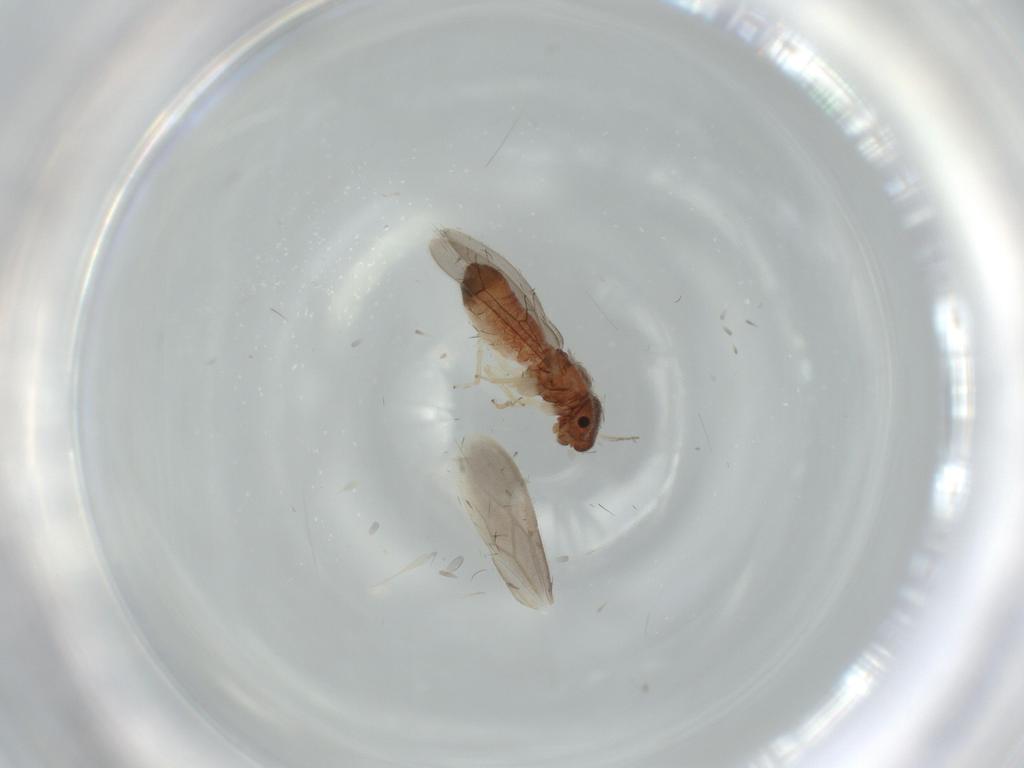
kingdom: Animalia
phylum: Arthropoda
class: Insecta
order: Psocodea
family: Archipsocidae
